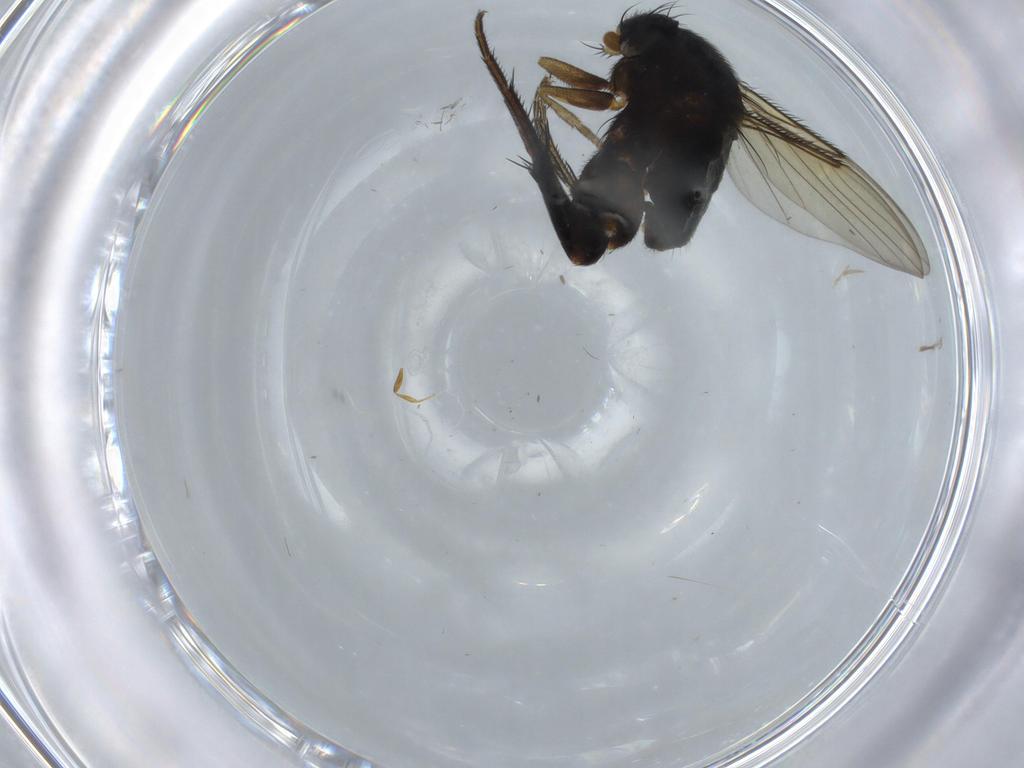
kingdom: Animalia
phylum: Arthropoda
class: Insecta
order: Diptera
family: Phoridae
